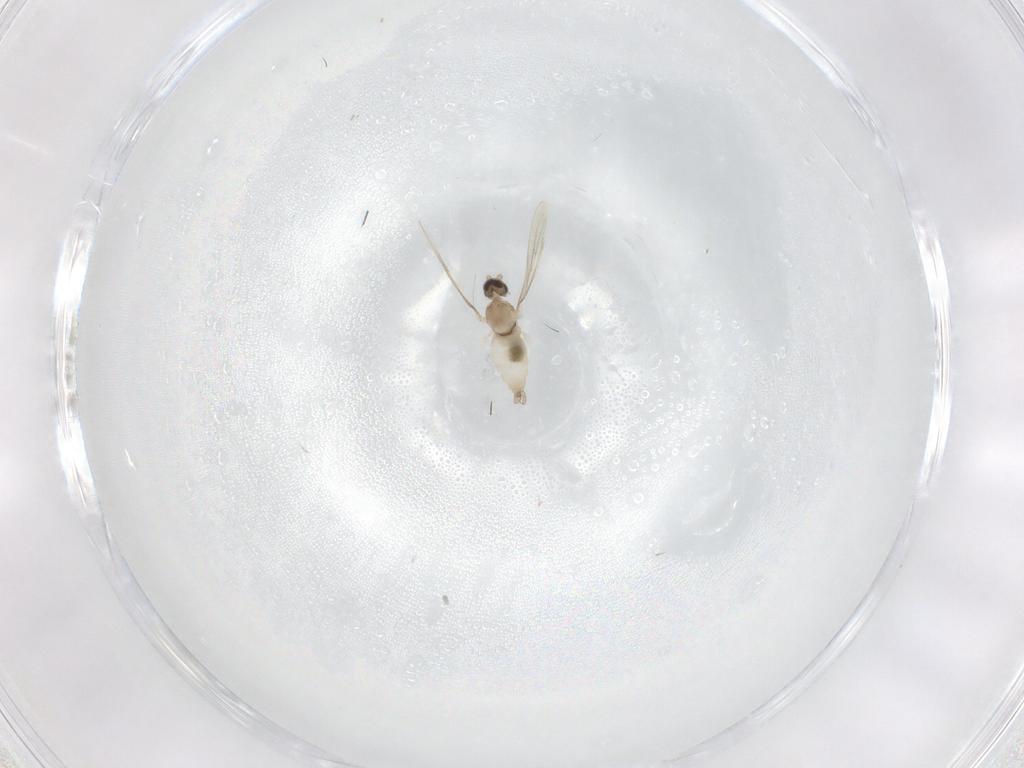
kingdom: Animalia
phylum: Arthropoda
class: Insecta
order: Diptera
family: Cecidomyiidae
